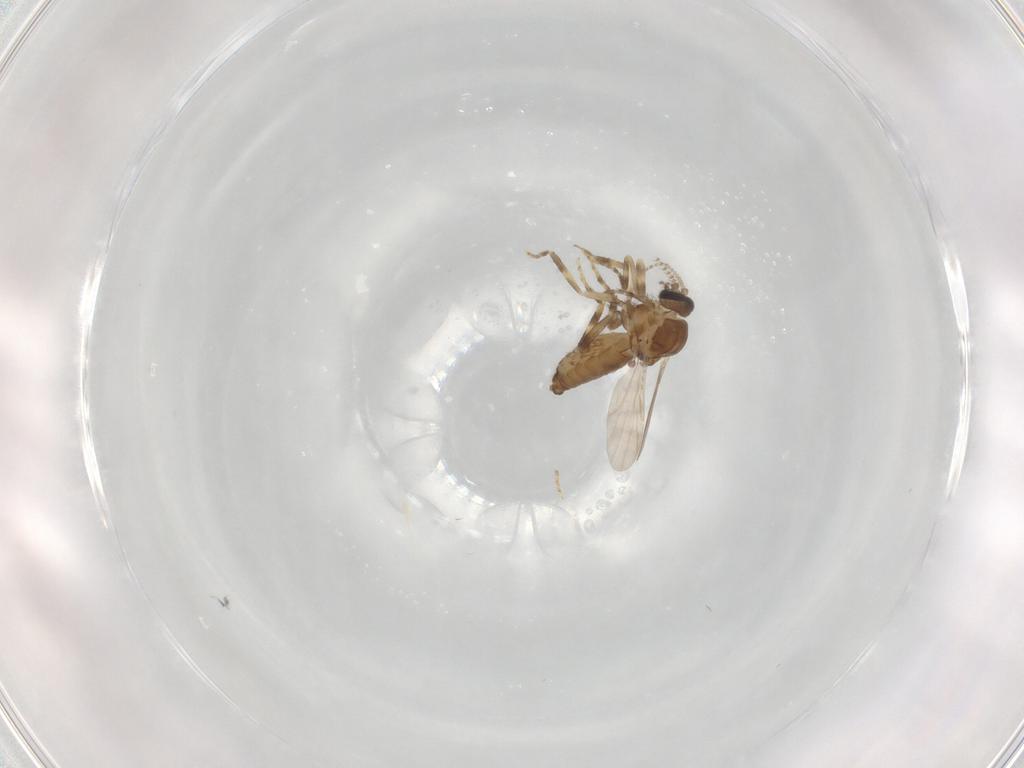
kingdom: Animalia
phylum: Arthropoda
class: Insecta
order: Diptera
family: Ceratopogonidae
